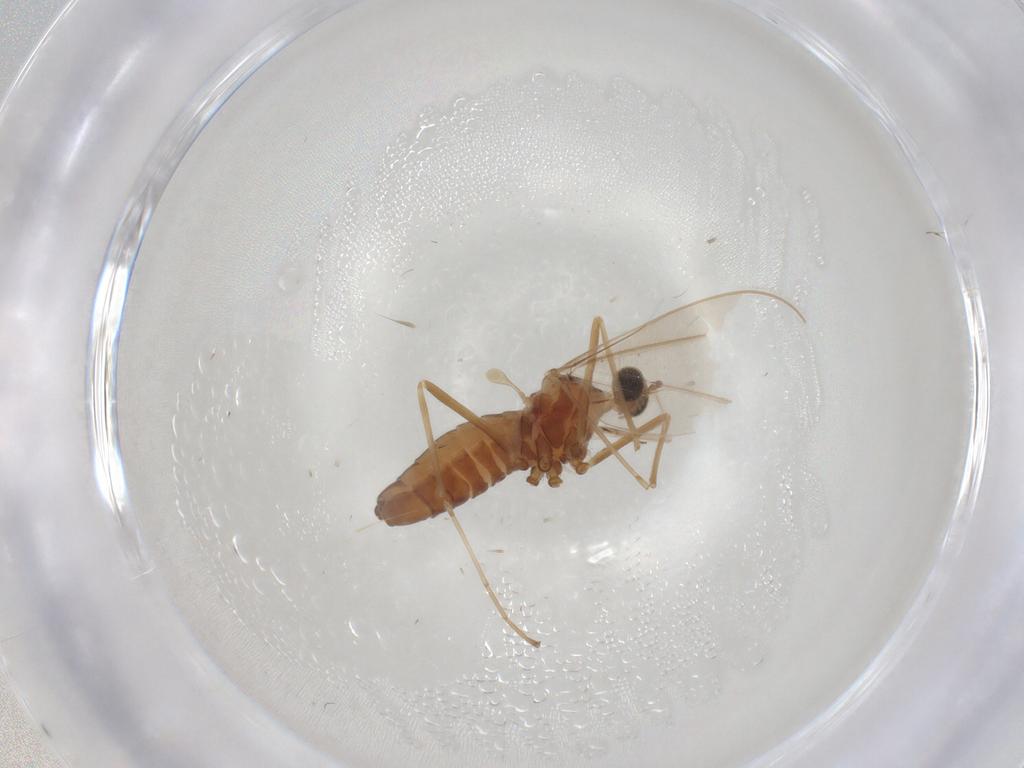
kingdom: Animalia
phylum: Arthropoda
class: Insecta
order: Diptera
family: Cecidomyiidae
